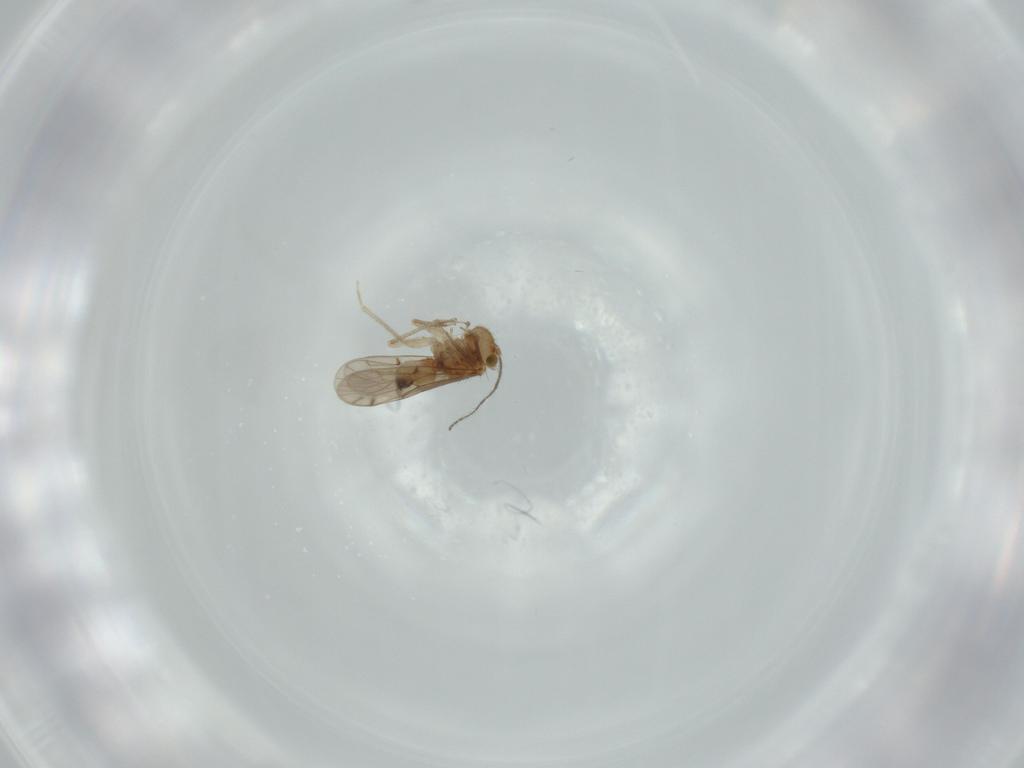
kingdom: Animalia
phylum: Arthropoda
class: Insecta
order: Psocodea
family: Ectopsocidae
